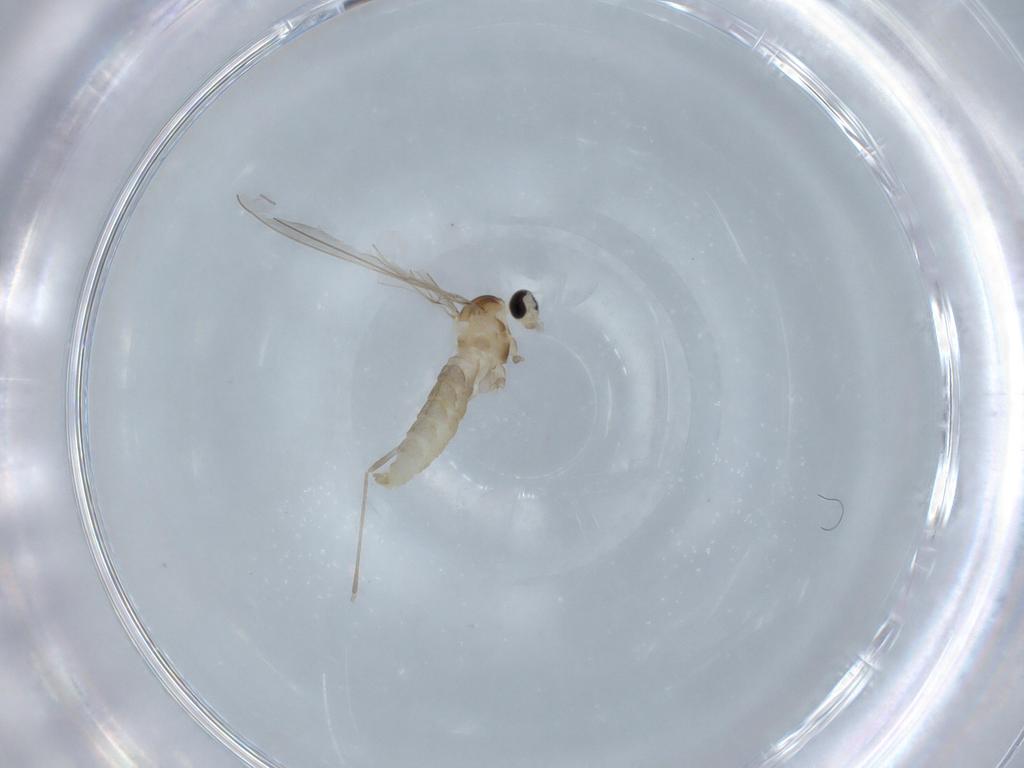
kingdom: Animalia
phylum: Arthropoda
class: Insecta
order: Diptera
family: Cecidomyiidae
